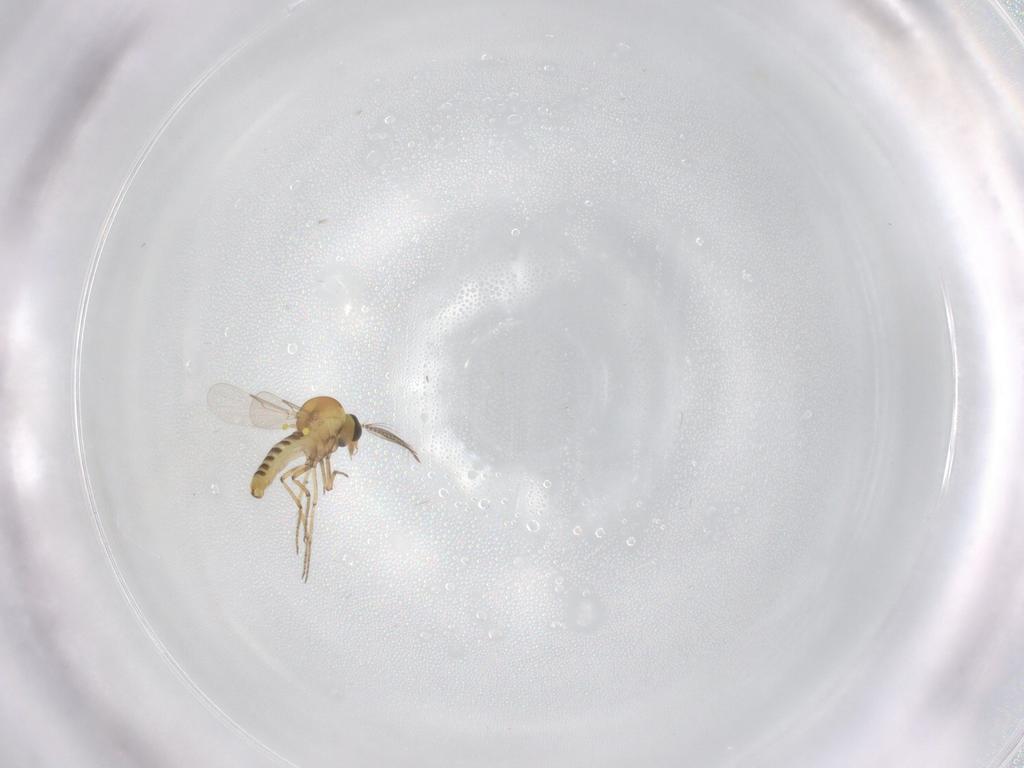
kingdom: Animalia
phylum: Arthropoda
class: Insecta
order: Diptera
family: Ceratopogonidae
